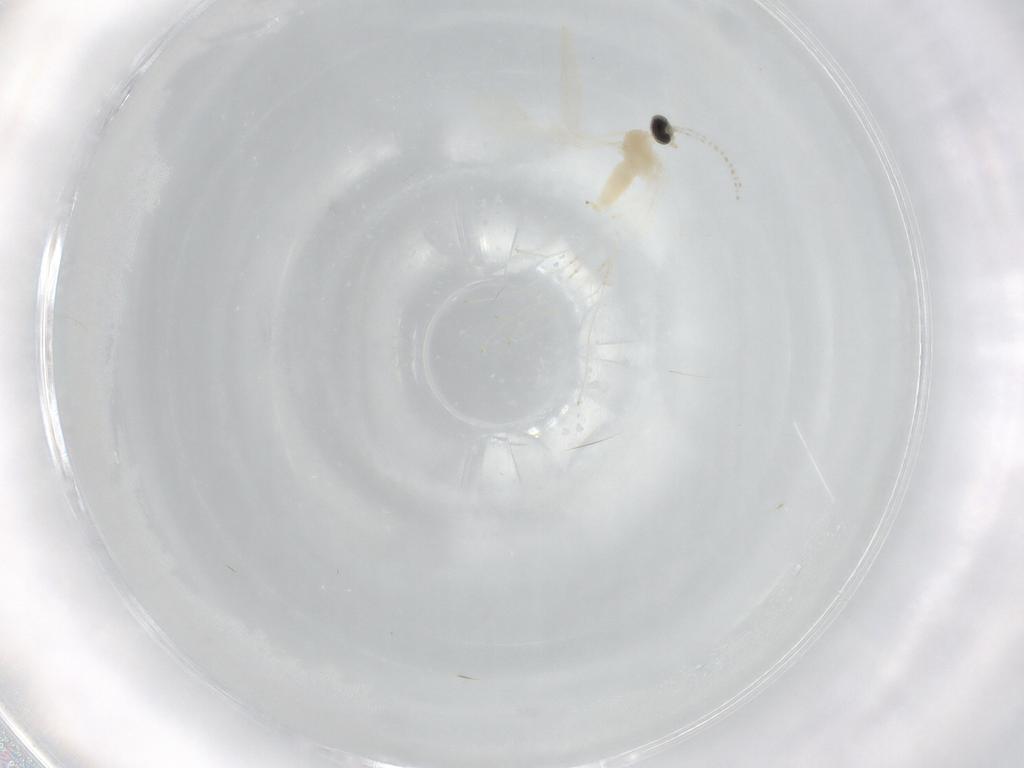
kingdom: Animalia
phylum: Arthropoda
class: Insecta
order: Diptera
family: Cecidomyiidae
